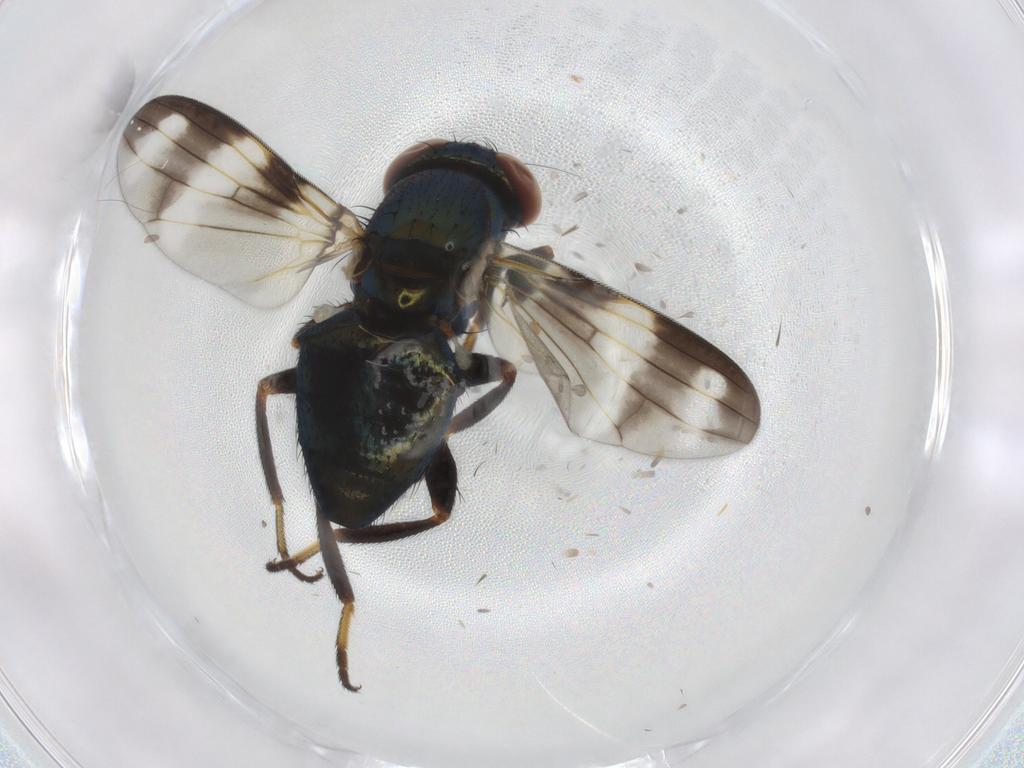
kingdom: Animalia
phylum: Arthropoda
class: Insecta
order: Diptera
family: Ulidiidae
